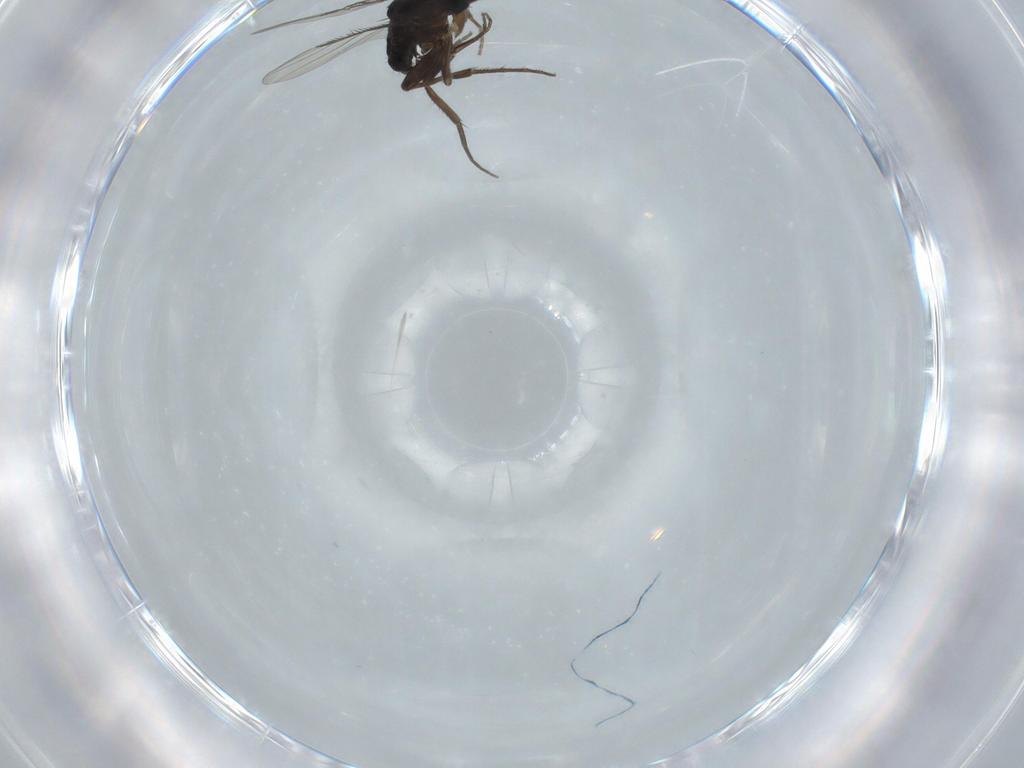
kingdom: Animalia
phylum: Arthropoda
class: Insecta
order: Diptera
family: Phoridae
